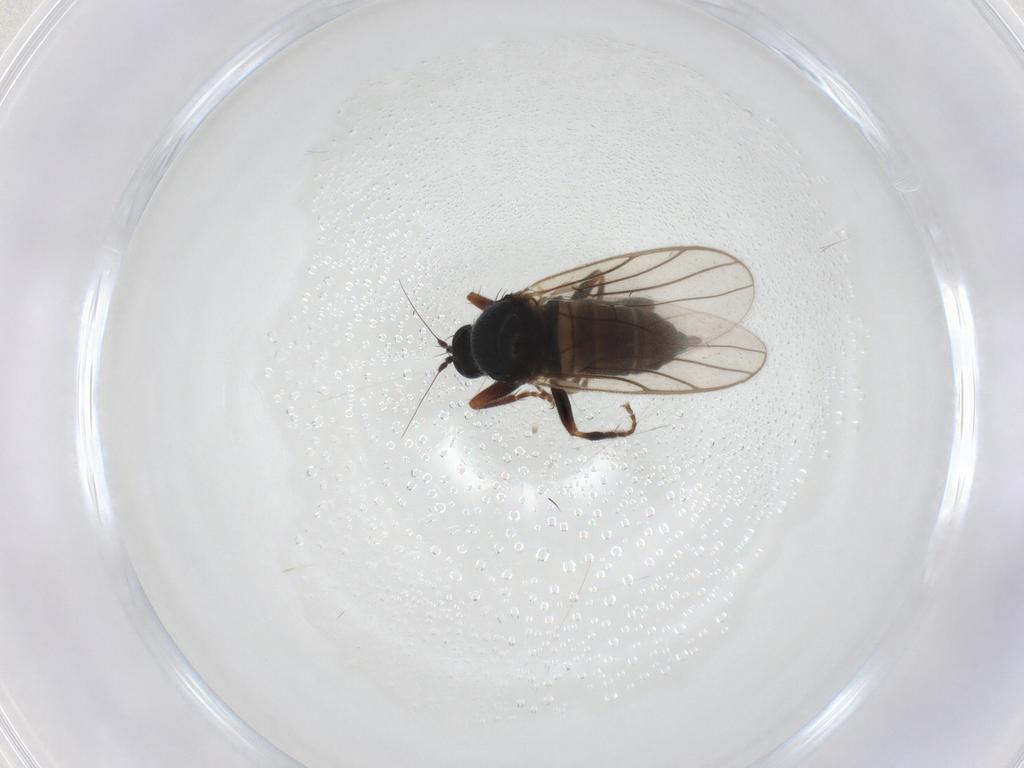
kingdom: Animalia
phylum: Arthropoda
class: Insecta
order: Diptera
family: Hybotidae
